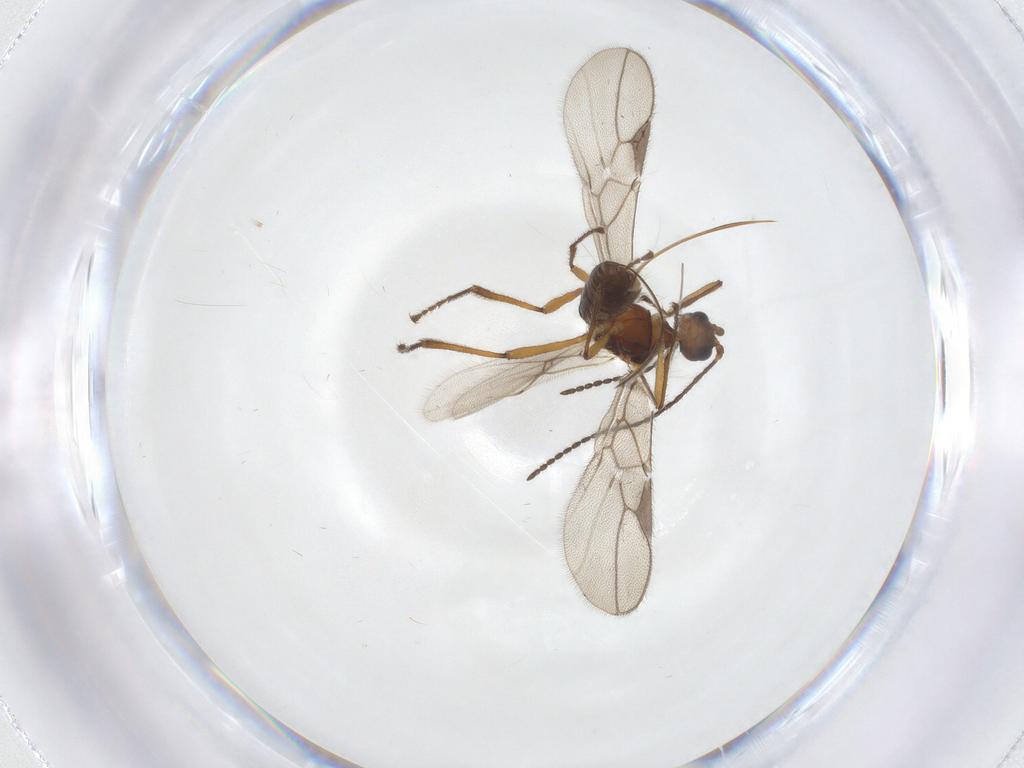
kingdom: Animalia
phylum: Arthropoda
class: Insecta
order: Hymenoptera
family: Braconidae
